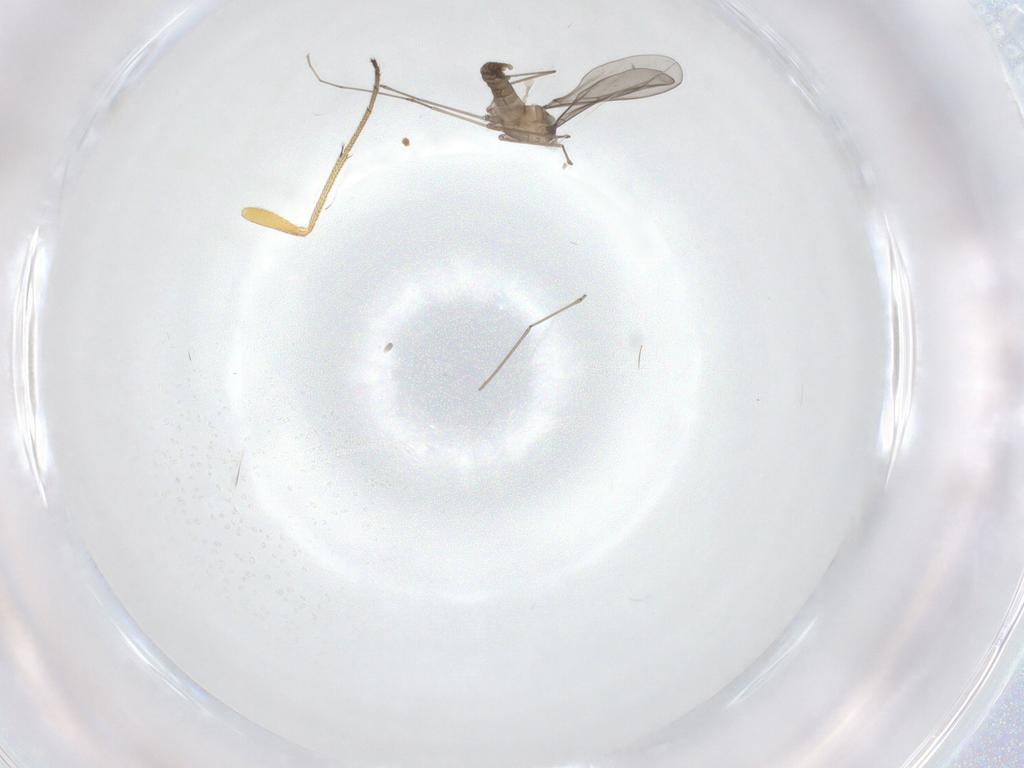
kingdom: Animalia
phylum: Arthropoda
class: Insecta
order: Diptera
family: Cecidomyiidae
